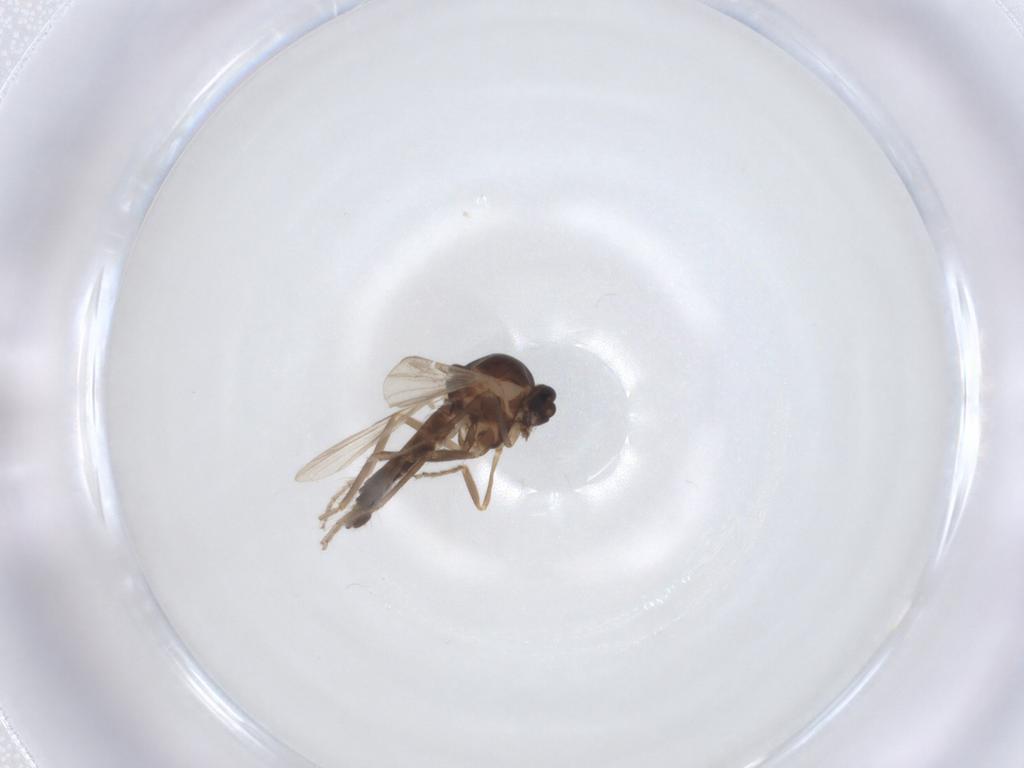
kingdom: Animalia
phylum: Arthropoda
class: Insecta
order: Diptera
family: Ceratopogonidae
